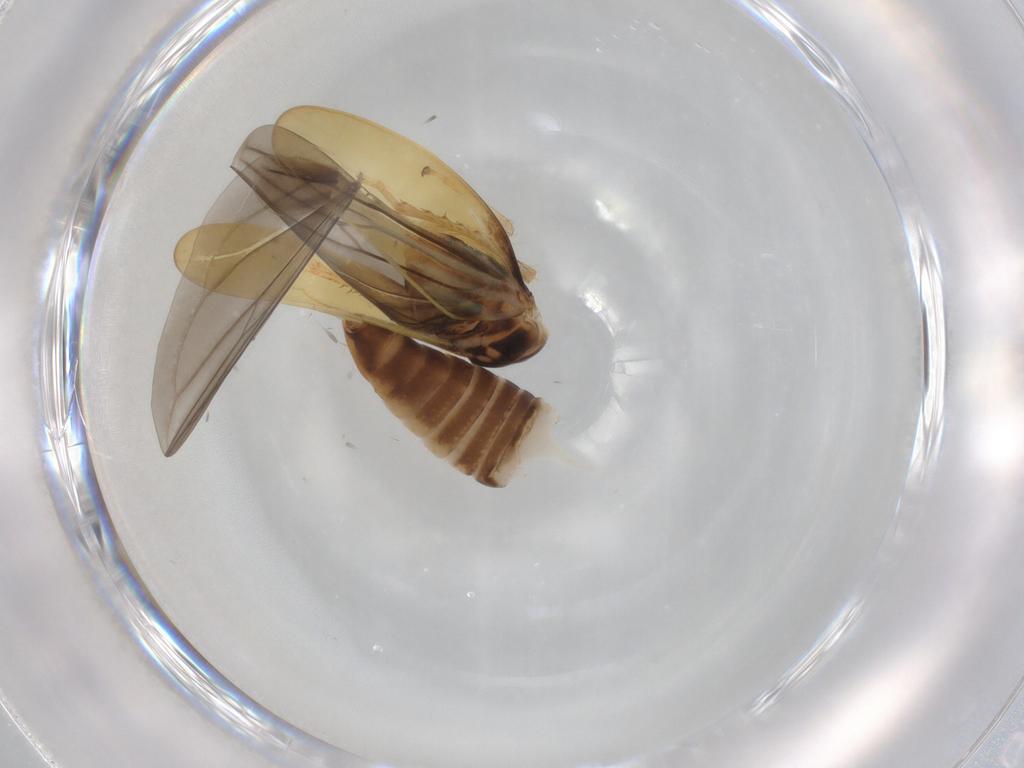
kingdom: Animalia
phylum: Arthropoda
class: Insecta
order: Hemiptera
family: Cicadellidae
